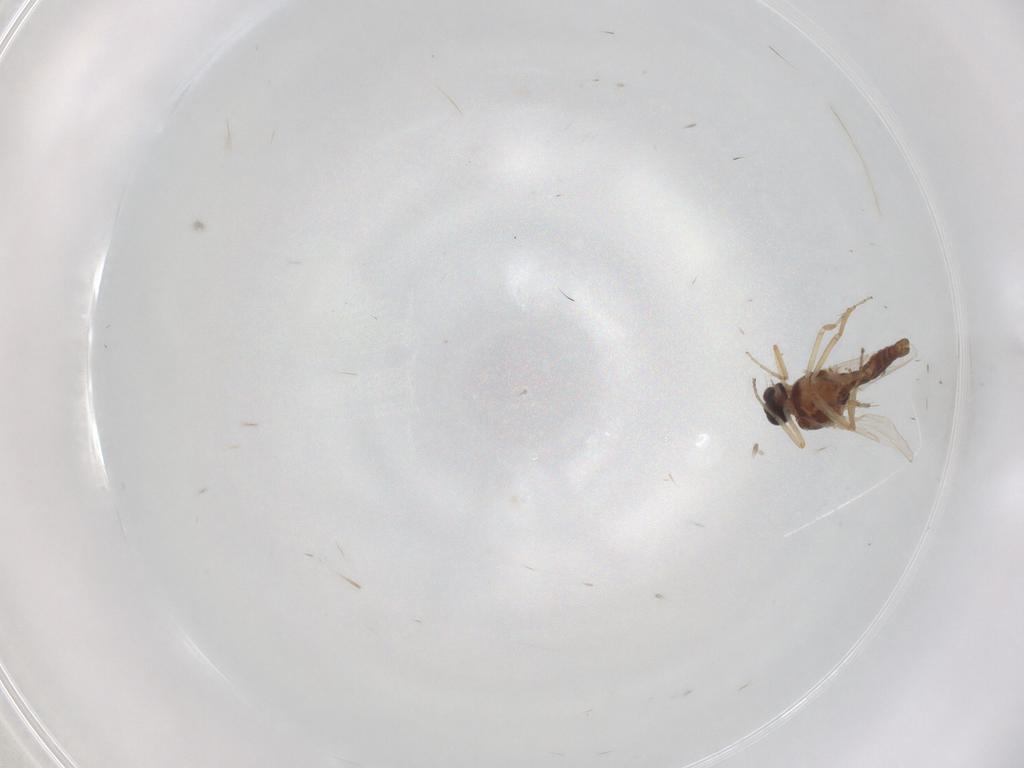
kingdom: Animalia
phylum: Arthropoda
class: Insecta
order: Diptera
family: Ceratopogonidae
